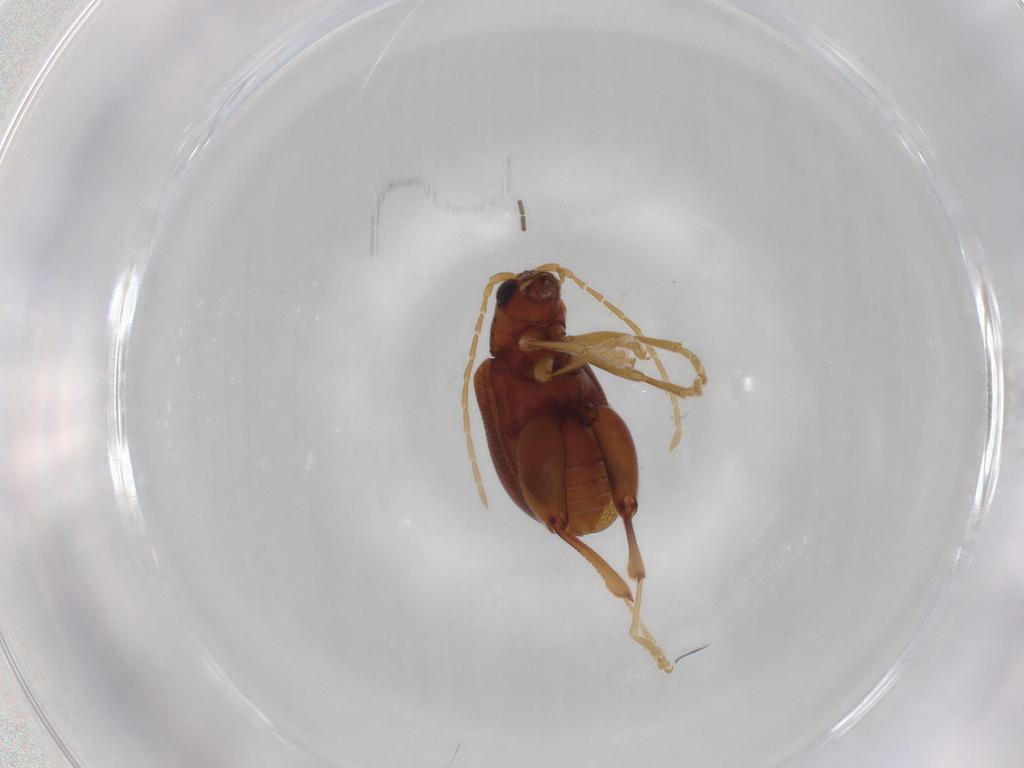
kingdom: Animalia
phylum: Arthropoda
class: Insecta
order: Coleoptera
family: Chrysomelidae
